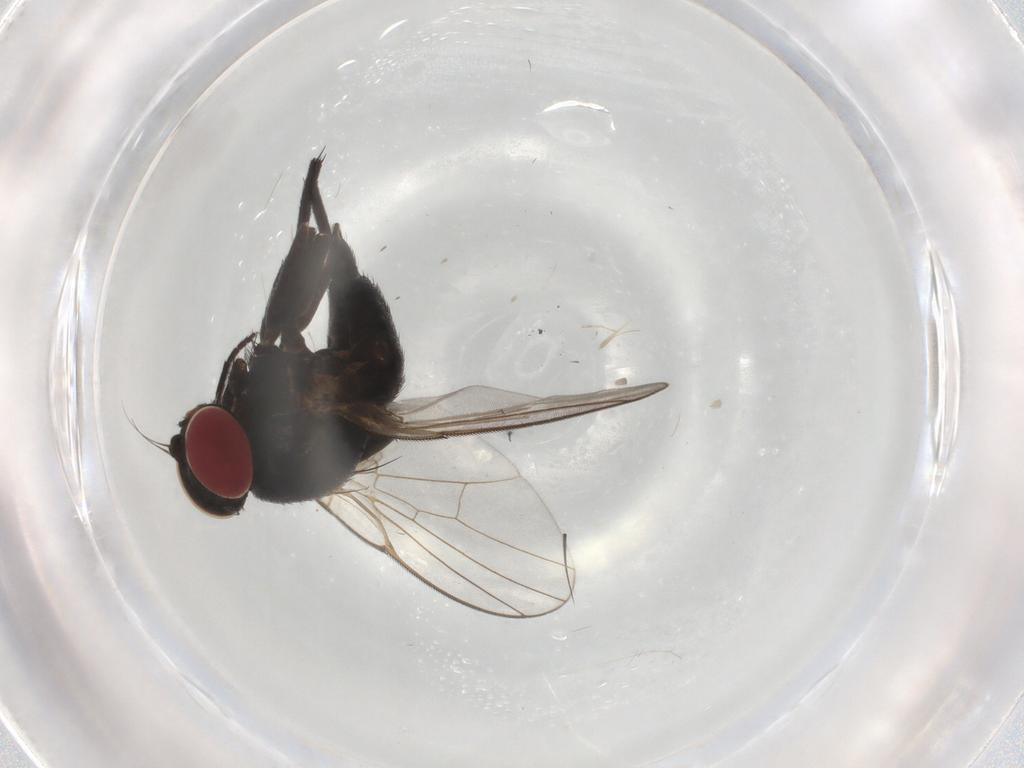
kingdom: Animalia
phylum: Arthropoda
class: Insecta
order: Diptera
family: Agromyzidae
